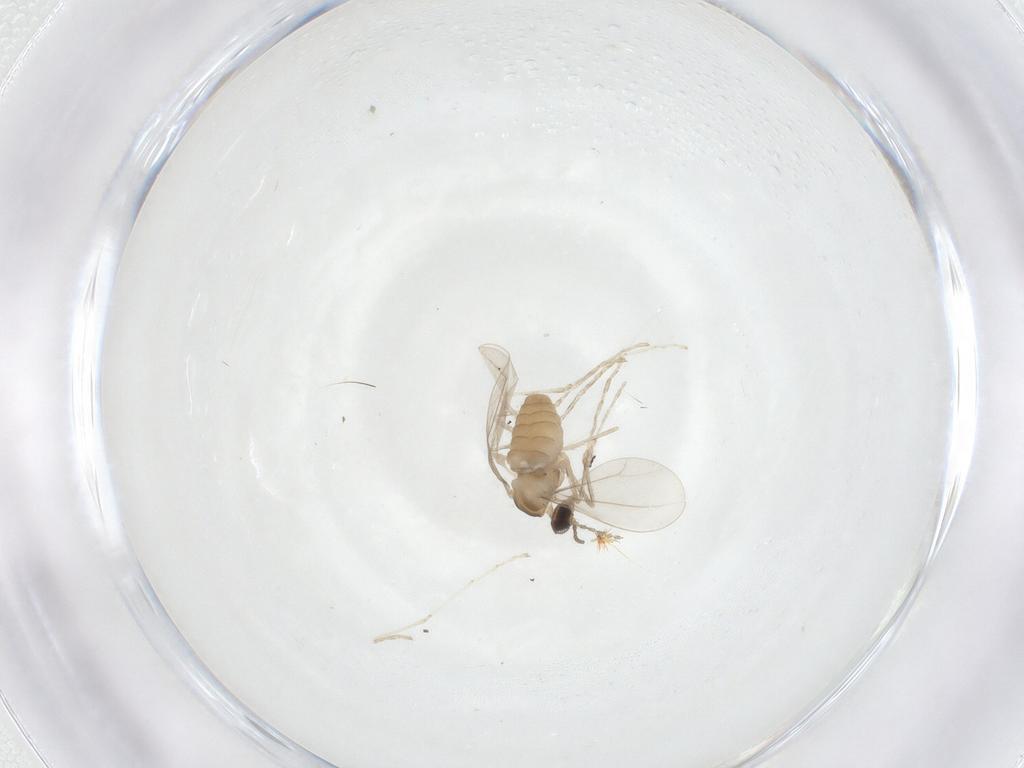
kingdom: Animalia
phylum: Arthropoda
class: Insecta
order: Diptera
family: Cecidomyiidae
